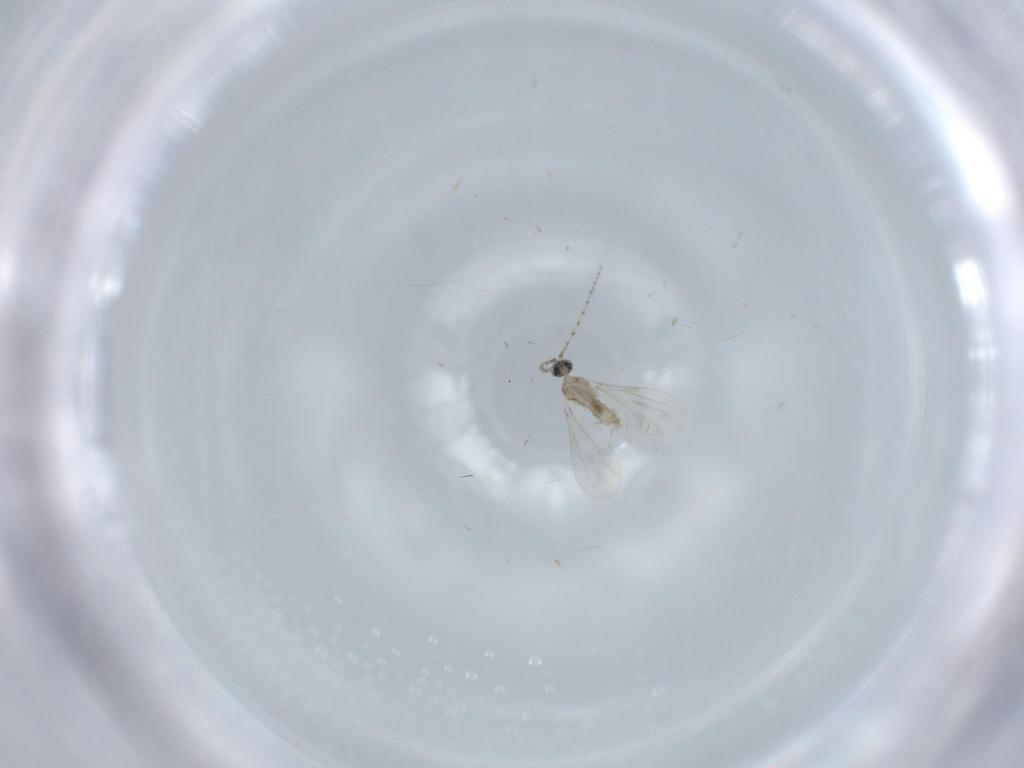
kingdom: Animalia
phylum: Arthropoda
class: Insecta
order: Diptera
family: Cecidomyiidae
